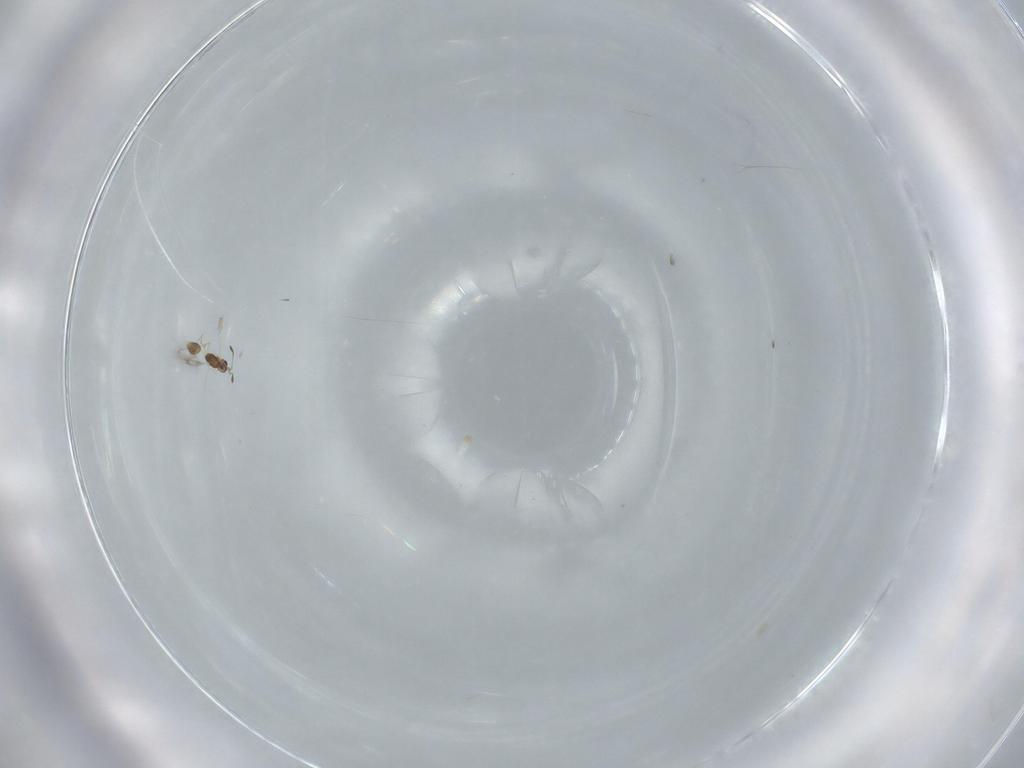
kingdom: Animalia
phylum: Arthropoda
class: Insecta
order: Hymenoptera
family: Mymarommatidae
